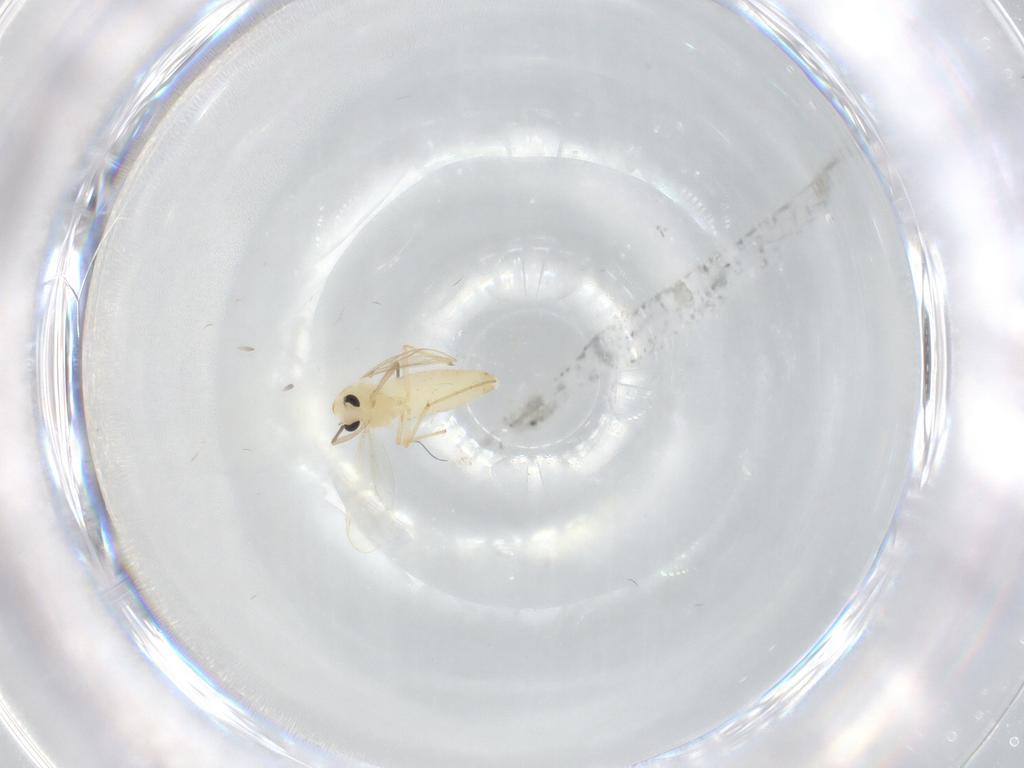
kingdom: Animalia
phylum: Arthropoda
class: Insecta
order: Diptera
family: Chironomidae
